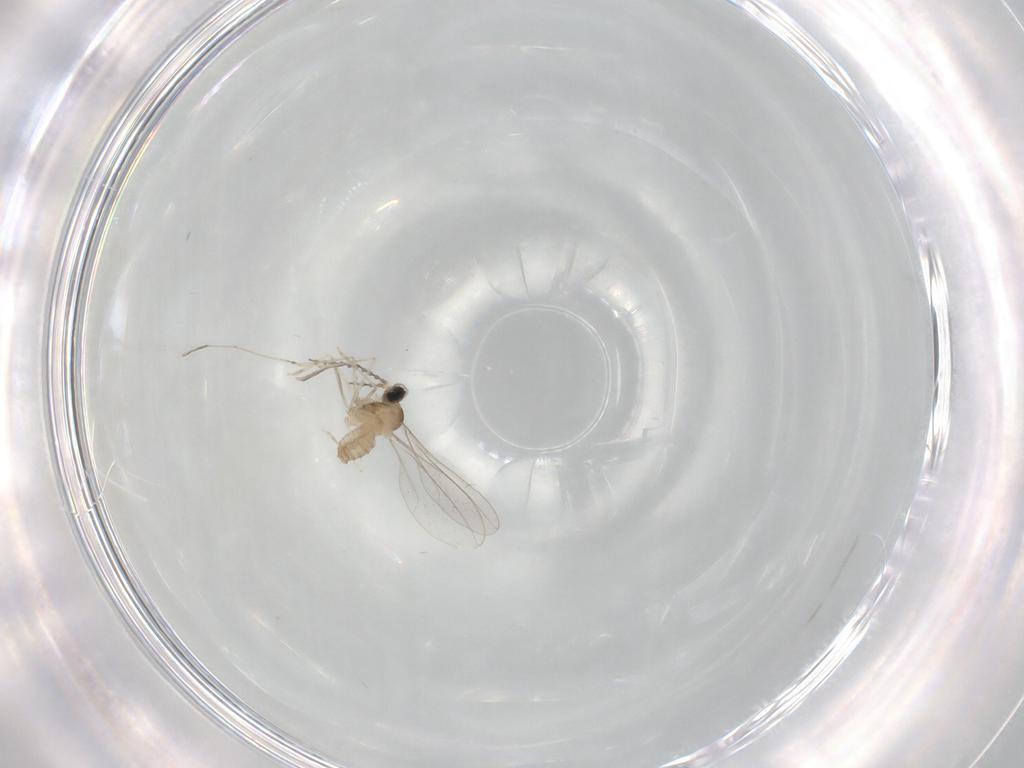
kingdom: Animalia
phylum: Arthropoda
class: Insecta
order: Diptera
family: Cecidomyiidae
